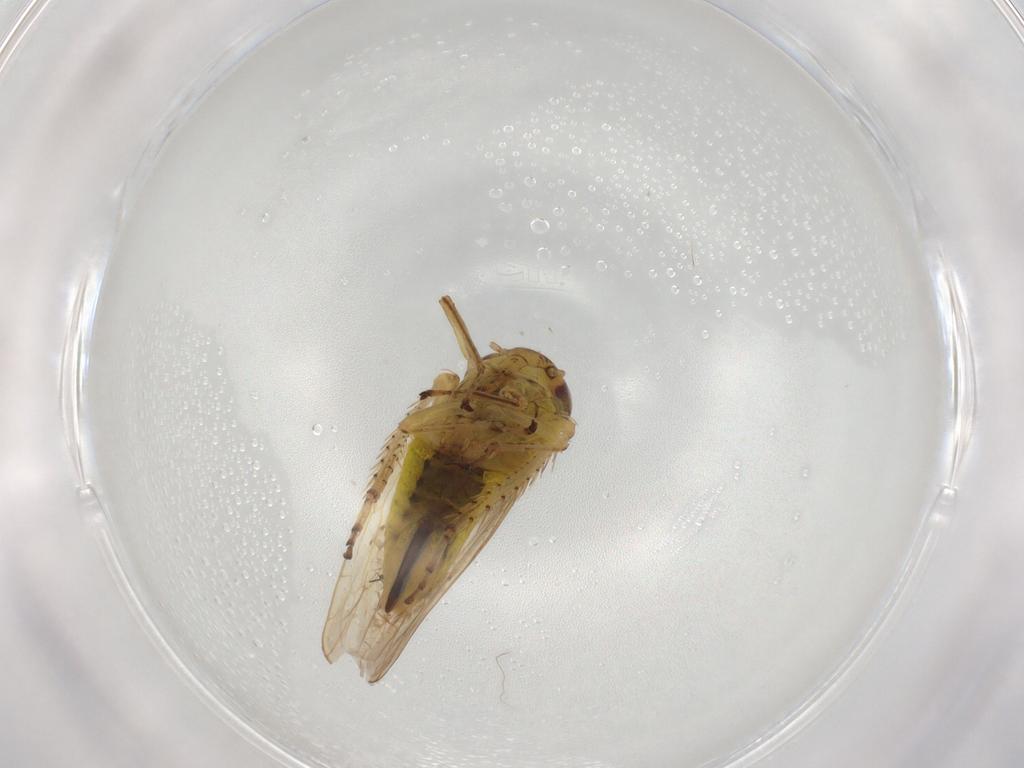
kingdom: Animalia
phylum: Arthropoda
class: Insecta
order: Hemiptera
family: Cicadellidae
